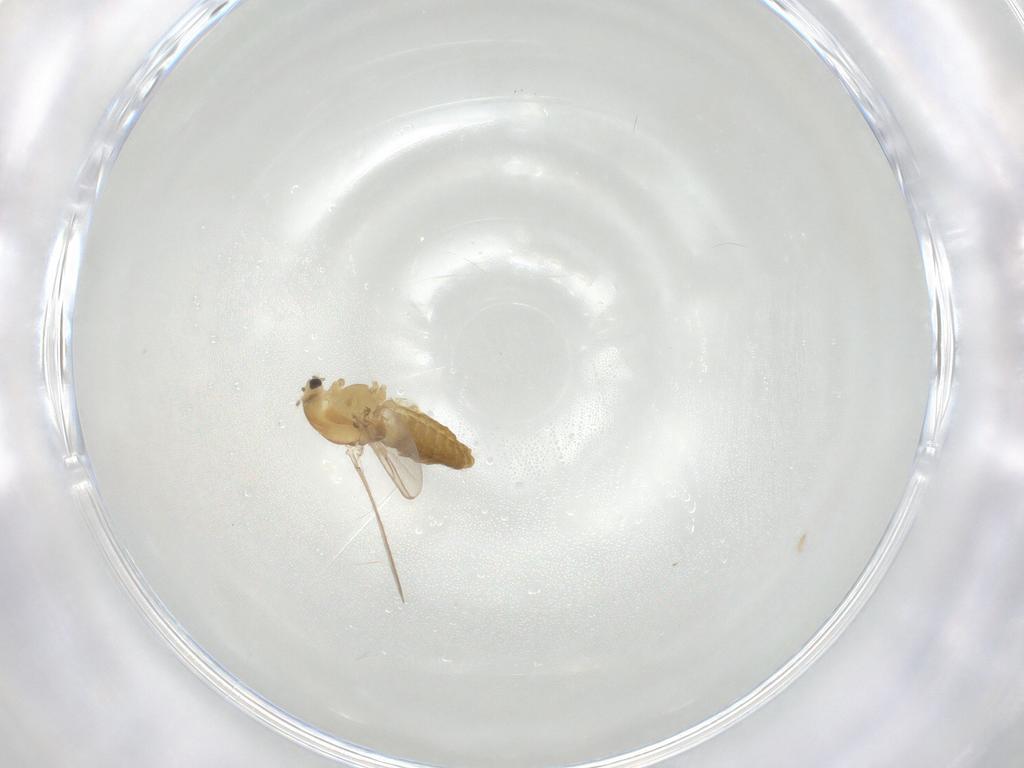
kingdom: Animalia
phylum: Arthropoda
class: Insecta
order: Diptera
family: Chironomidae
